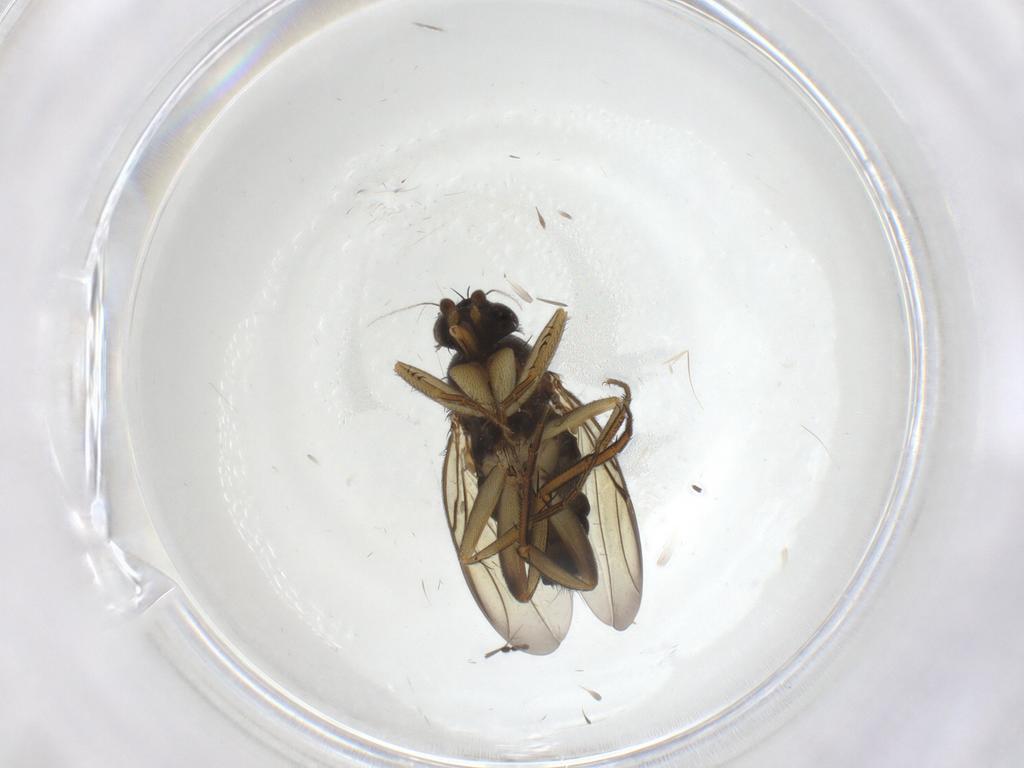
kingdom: Animalia
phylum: Arthropoda
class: Insecta
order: Diptera
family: Phoridae
